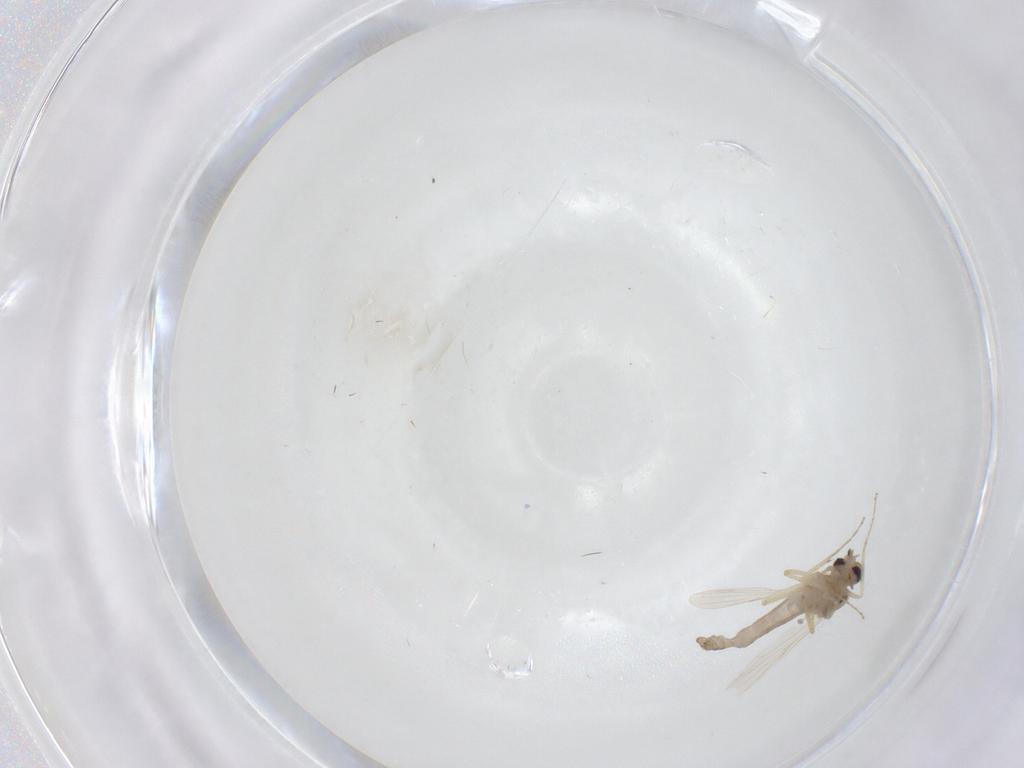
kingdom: Animalia
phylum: Arthropoda
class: Insecta
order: Diptera
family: Ceratopogonidae
